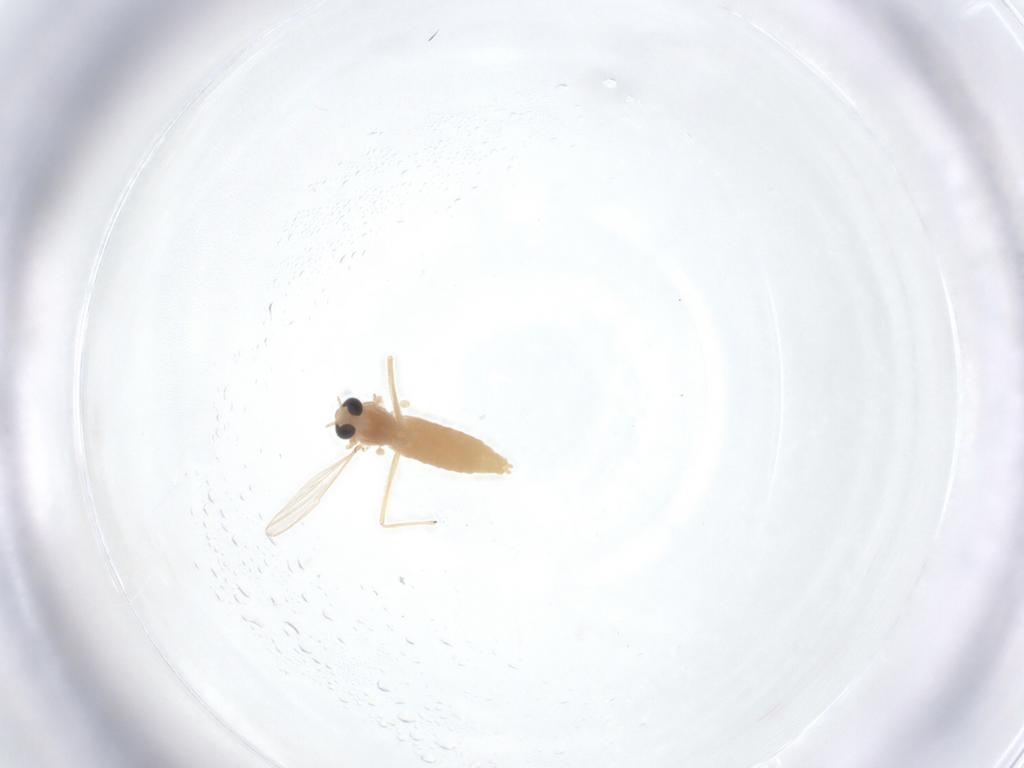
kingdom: Animalia
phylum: Arthropoda
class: Insecta
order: Diptera
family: Chironomidae
